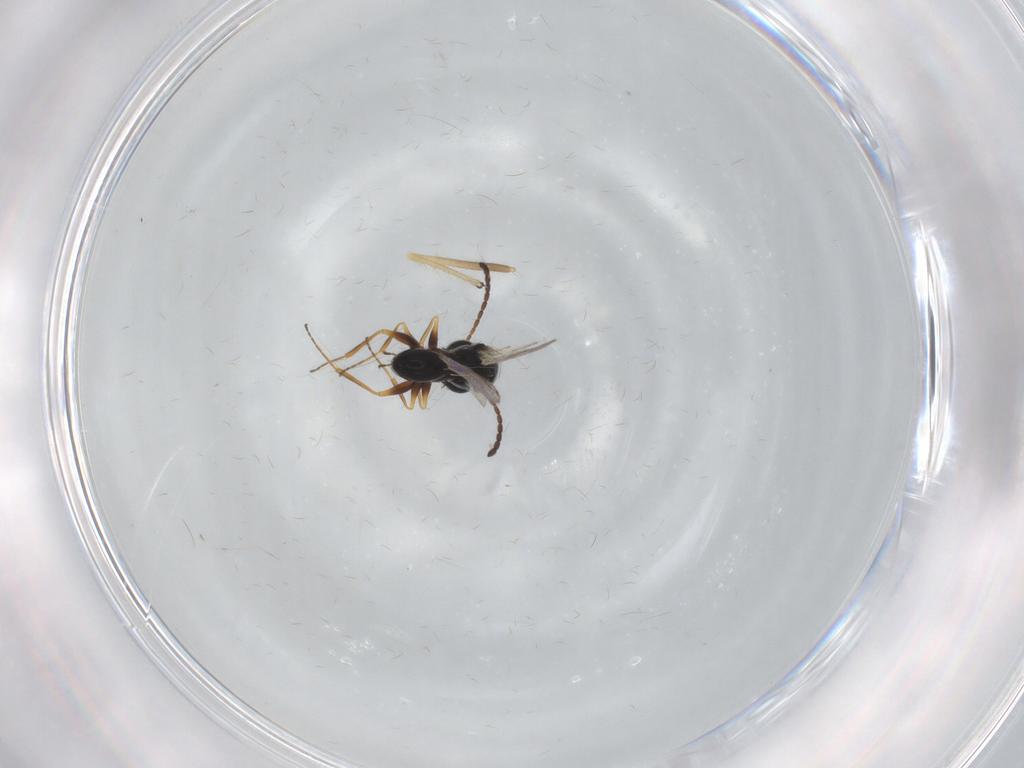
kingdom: Animalia
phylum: Arthropoda
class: Insecta
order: Hymenoptera
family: Figitidae
